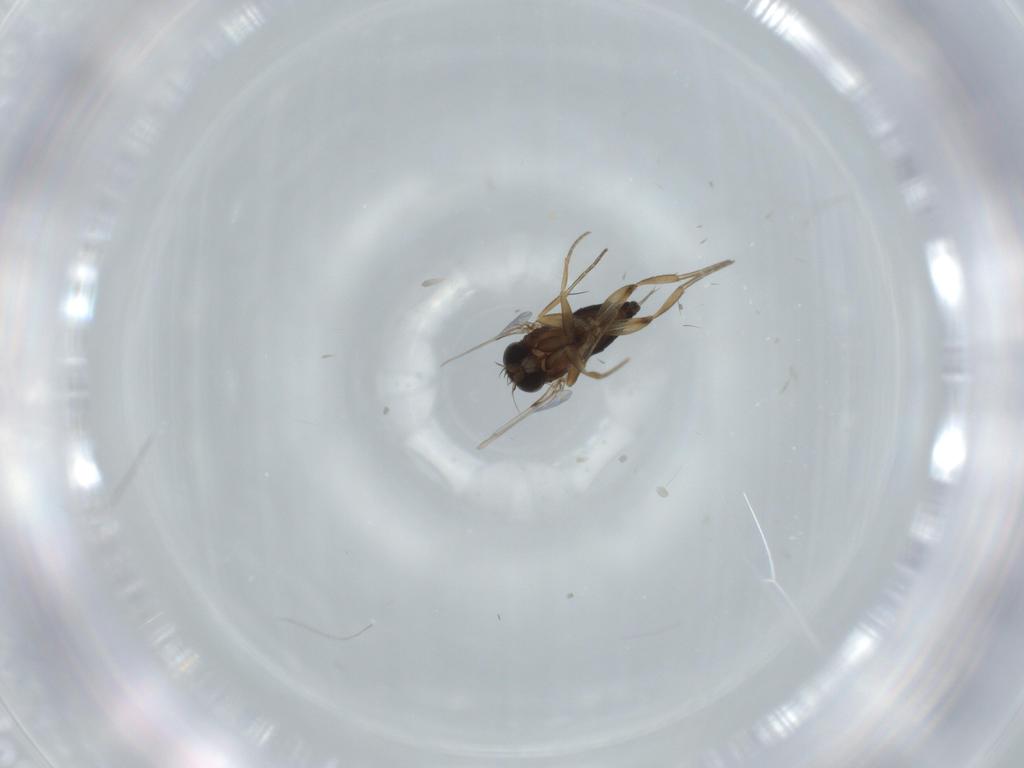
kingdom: Animalia
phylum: Arthropoda
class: Insecta
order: Diptera
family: Phoridae
